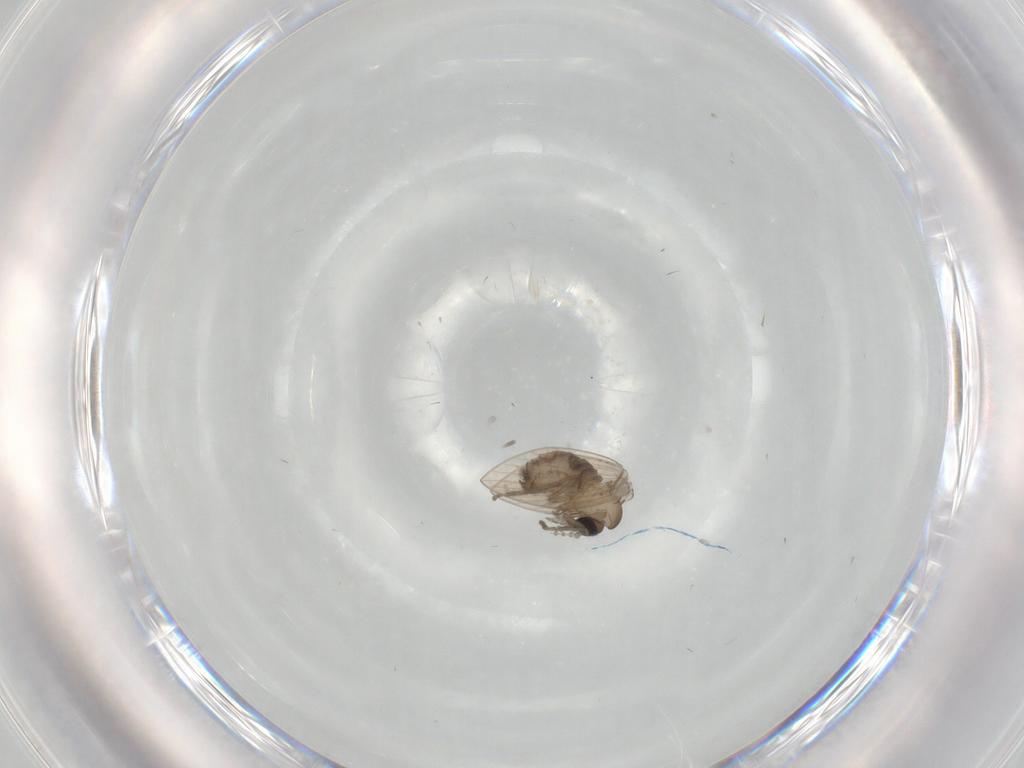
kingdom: Animalia
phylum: Arthropoda
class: Insecta
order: Diptera
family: Psychodidae
